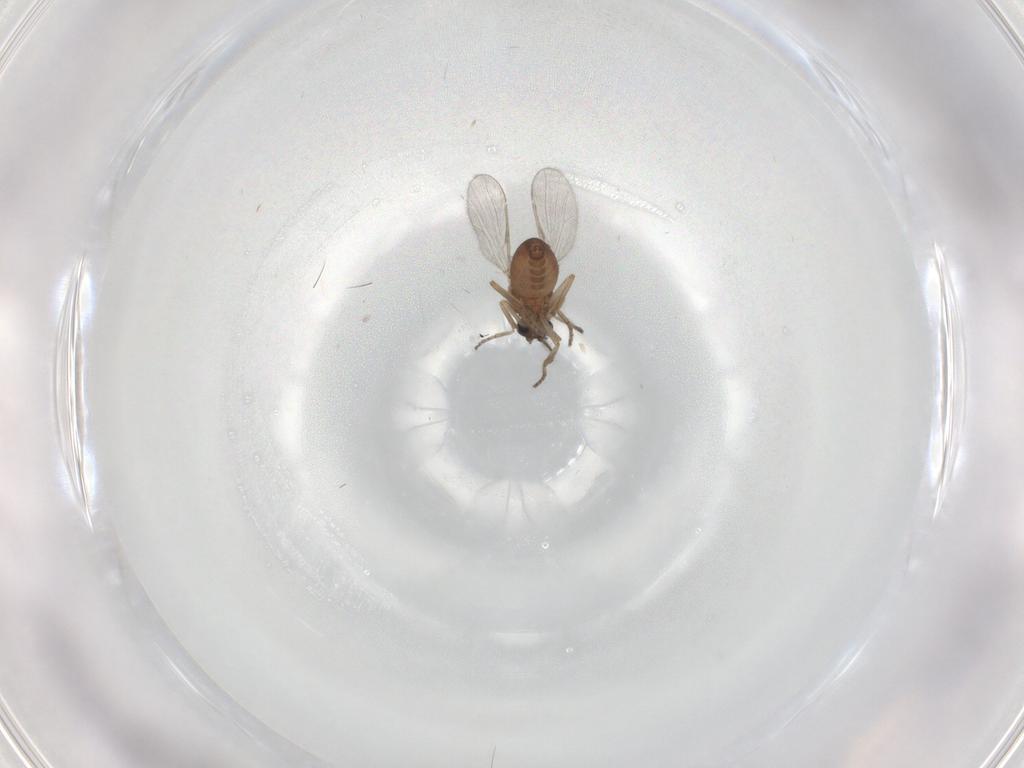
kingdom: Animalia
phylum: Arthropoda
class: Insecta
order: Diptera
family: Ceratopogonidae
